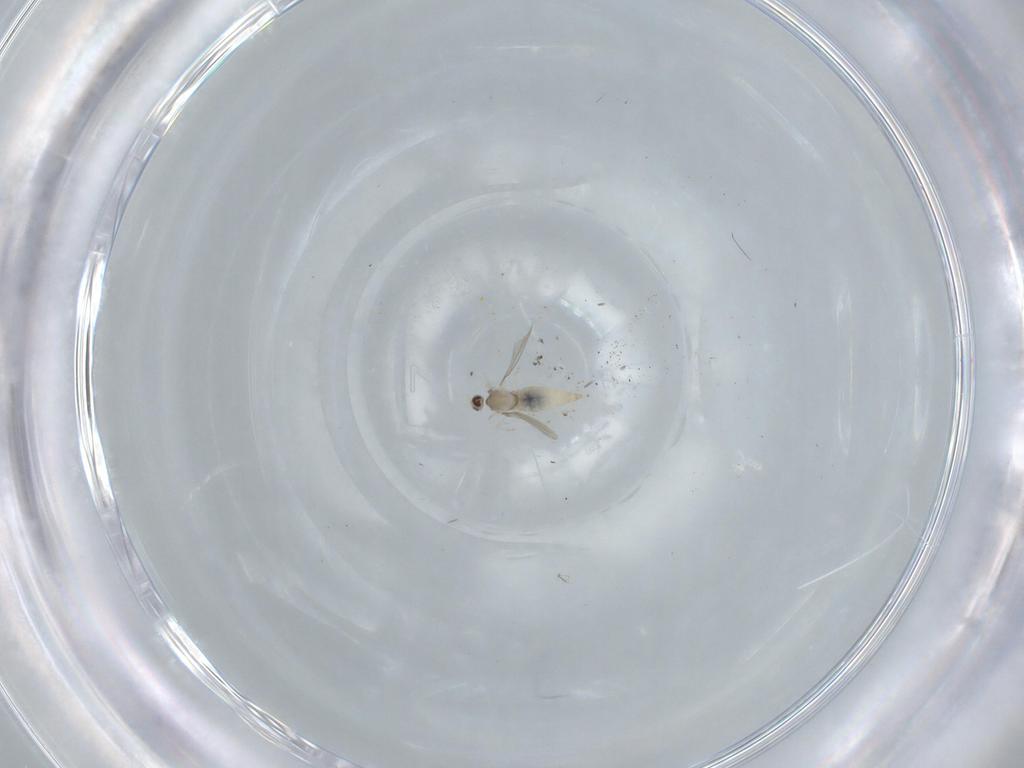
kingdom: Animalia
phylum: Arthropoda
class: Insecta
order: Diptera
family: Cecidomyiidae
